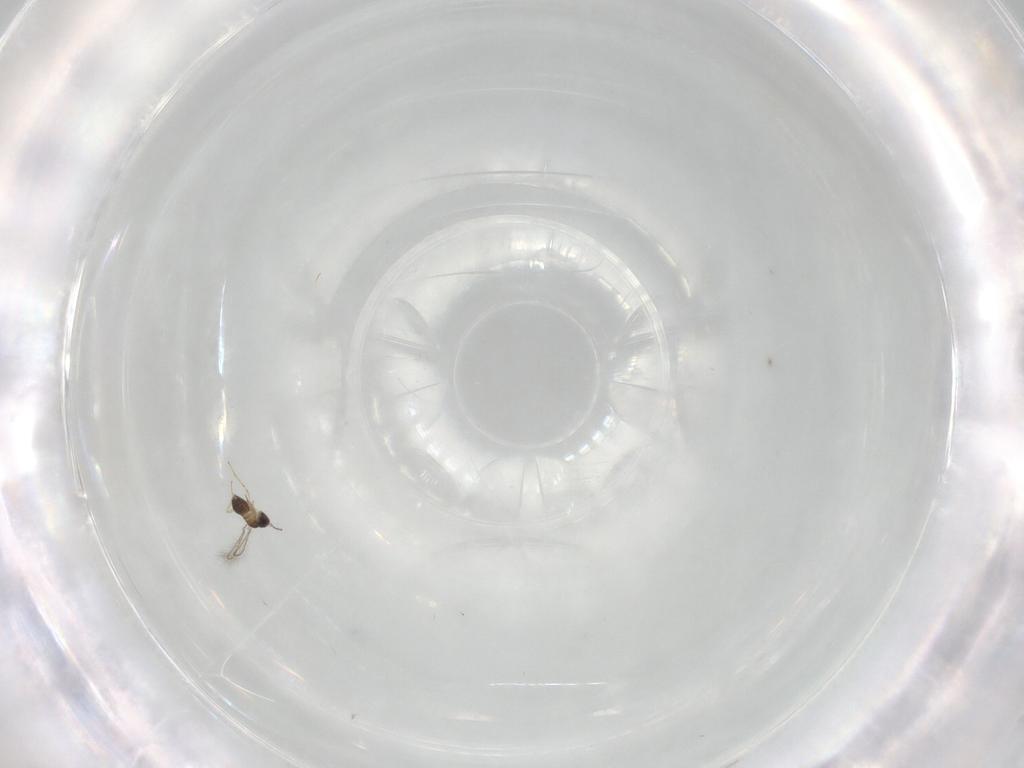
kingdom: Animalia
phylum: Arthropoda
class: Insecta
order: Hymenoptera
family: Mymaridae
